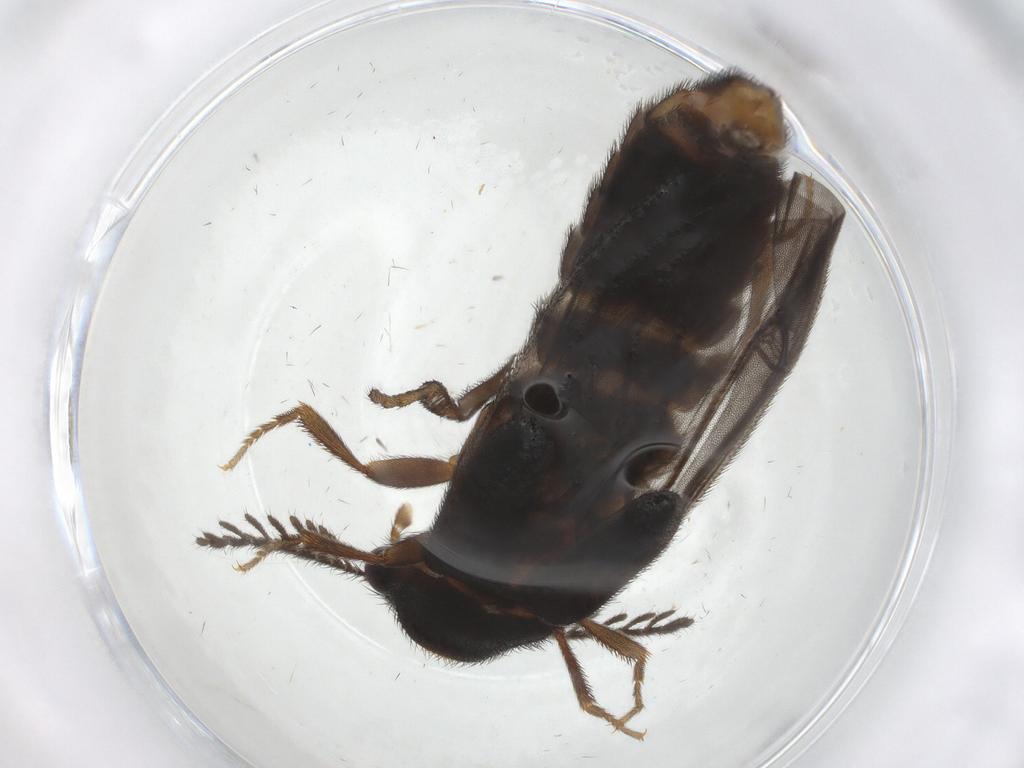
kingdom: Animalia
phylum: Arthropoda
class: Insecta
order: Coleoptera
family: Phengodidae
